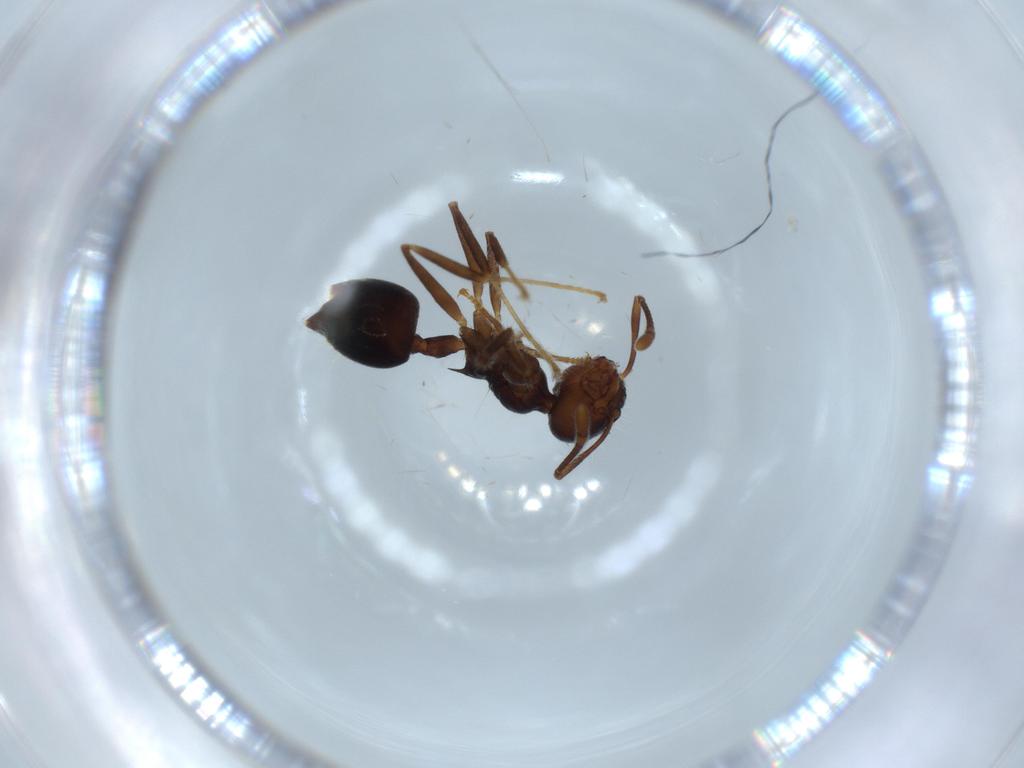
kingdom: Animalia
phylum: Arthropoda
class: Insecta
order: Hymenoptera
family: Formicidae
